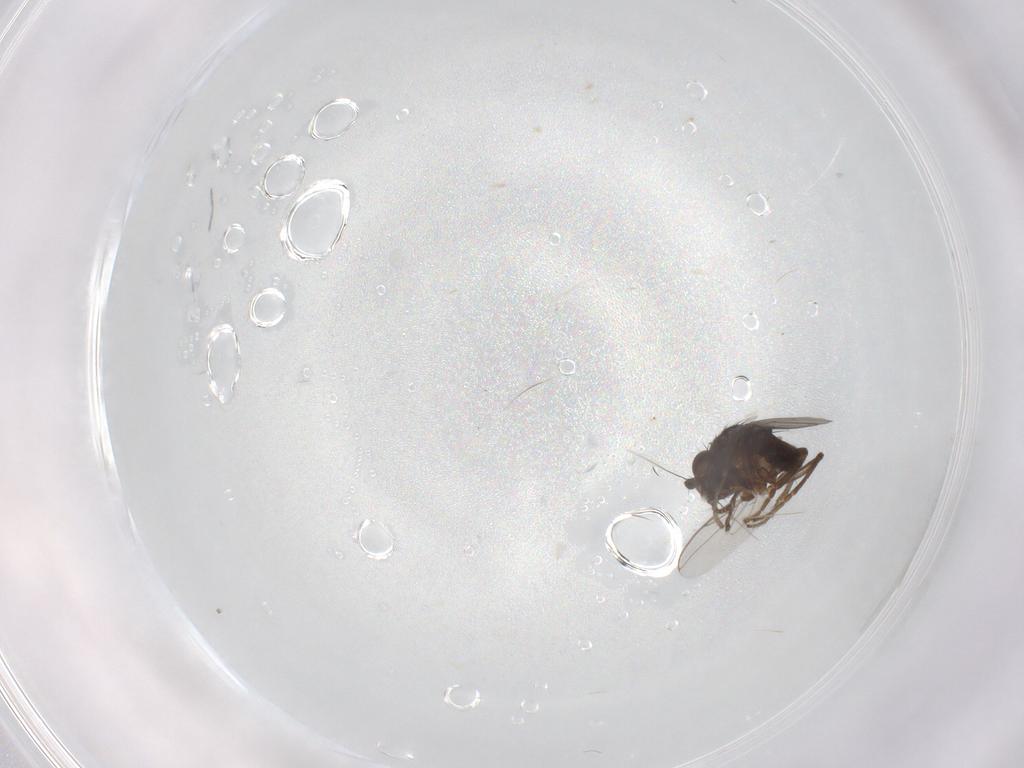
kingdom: Animalia
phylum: Arthropoda
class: Insecta
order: Diptera
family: Sphaeroceridae
